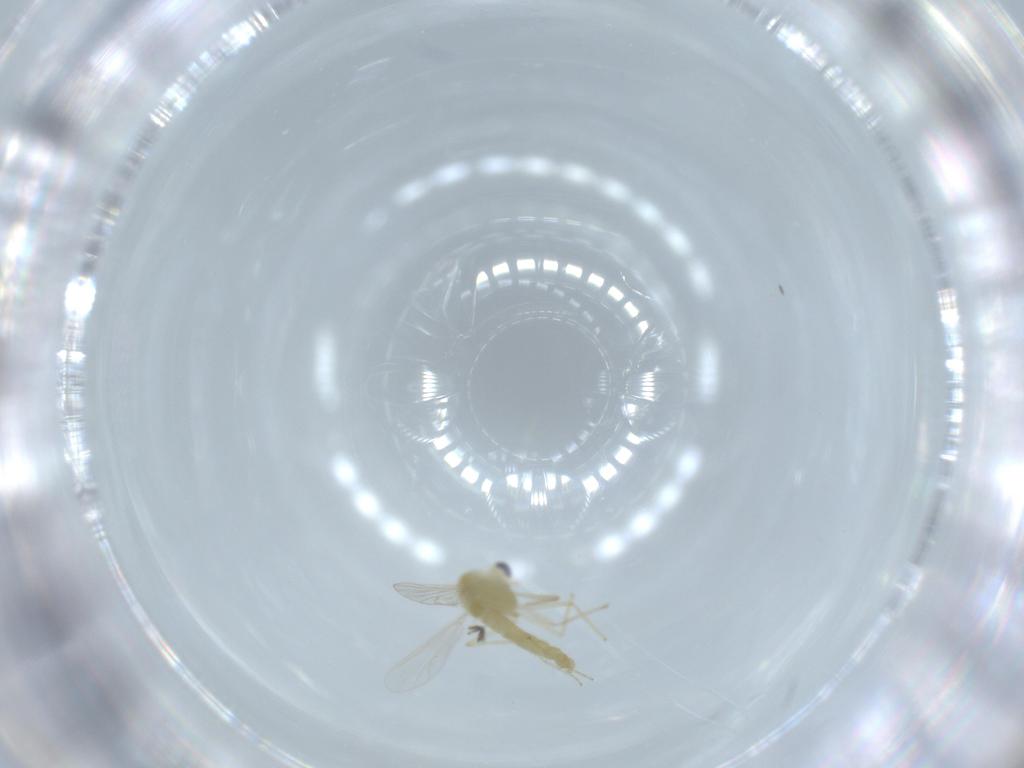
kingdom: Animalia
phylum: Arthropoda
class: Insecta
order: Diptera
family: Chironomidae
